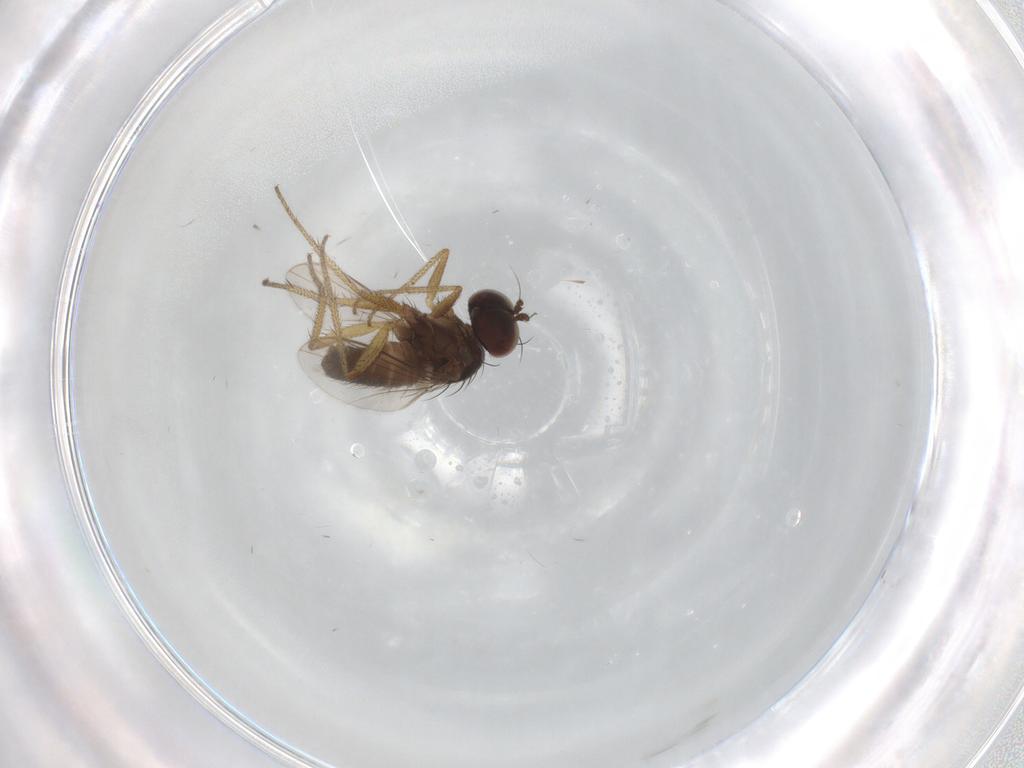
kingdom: Animalia
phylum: Arthropoda
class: Insecta
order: Diptera
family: Dolichopodidae
